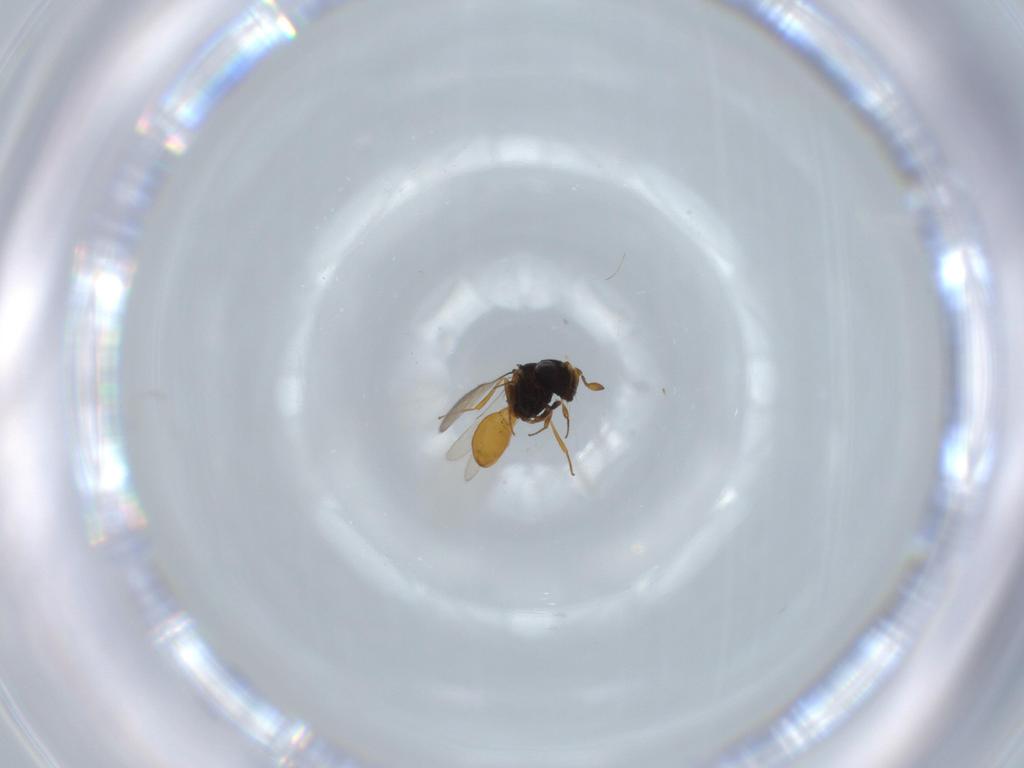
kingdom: Animalia
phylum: Arthropoda
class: Insecta
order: Hymenoptera
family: Scelionidae
